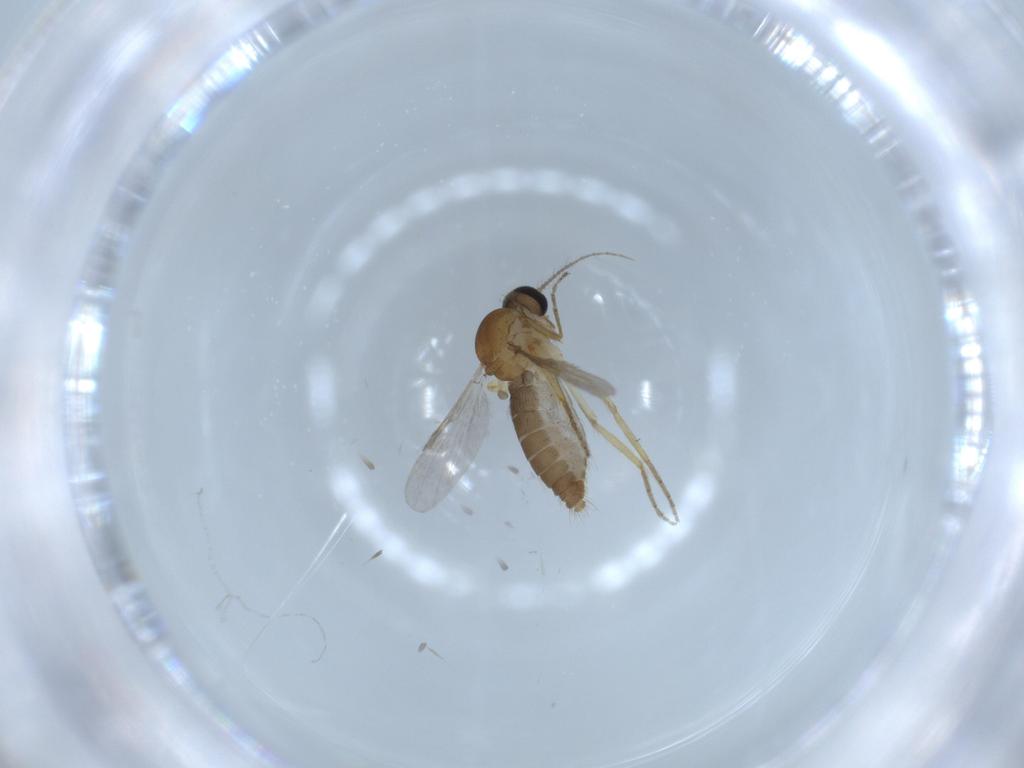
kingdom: Animalia
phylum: Arthropoda
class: Insecta
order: Diptera
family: Ceratopogonidae
